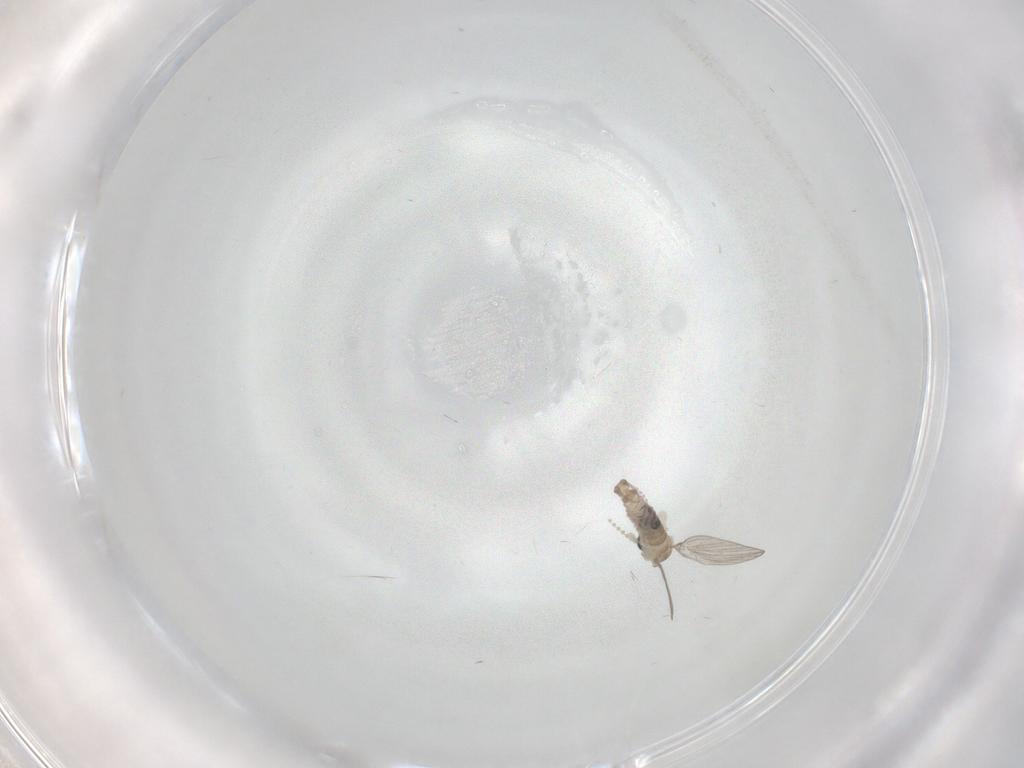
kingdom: Animalia
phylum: Arthropoda
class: Insecta
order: Diptera
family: Psychodidae
